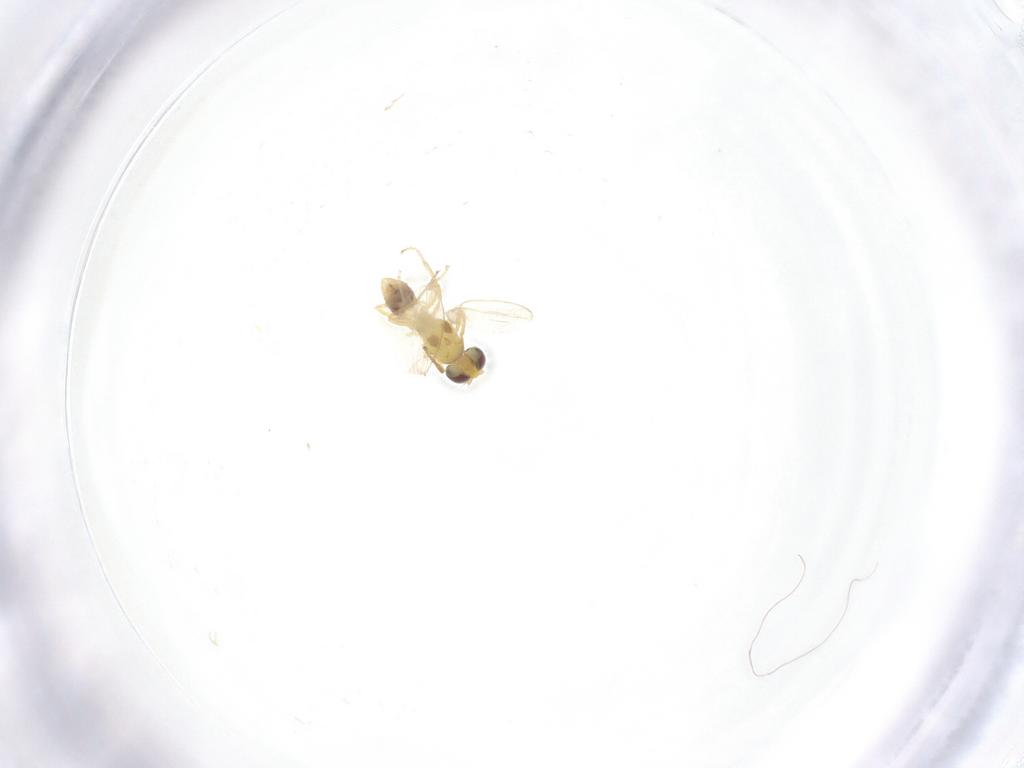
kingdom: Animalia
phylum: Arthropoda
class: Insecta
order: Diptera
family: Periscelididae
